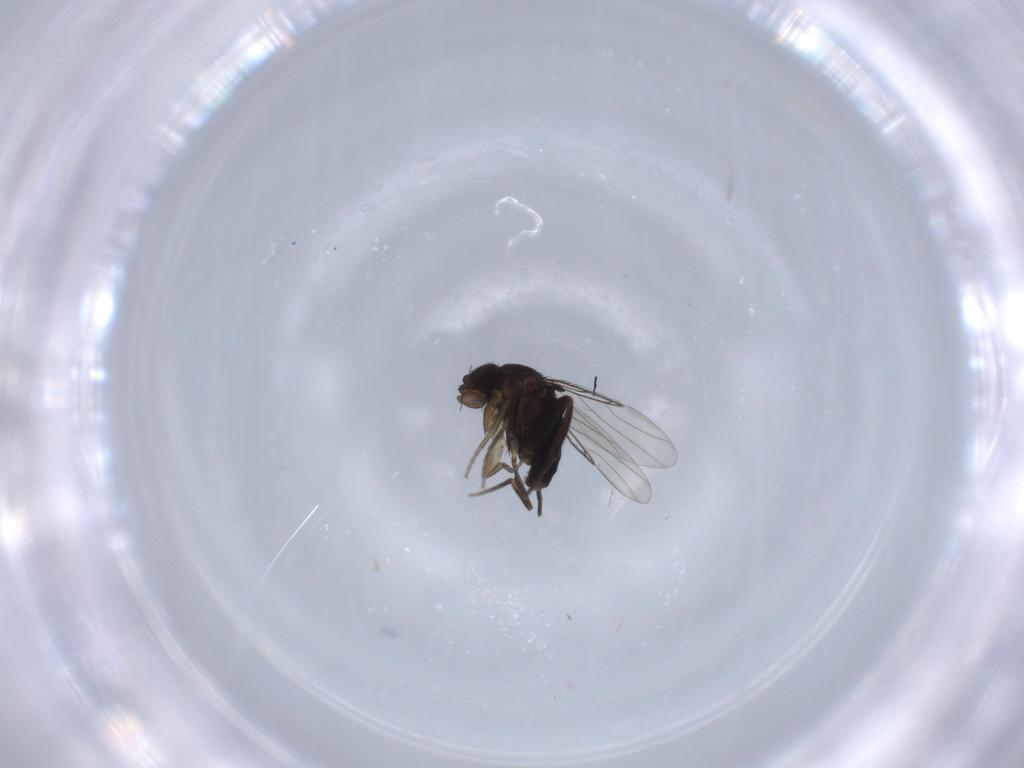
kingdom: Animalia
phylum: Arthropoda
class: Insecta
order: Diptera
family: Phoridae
